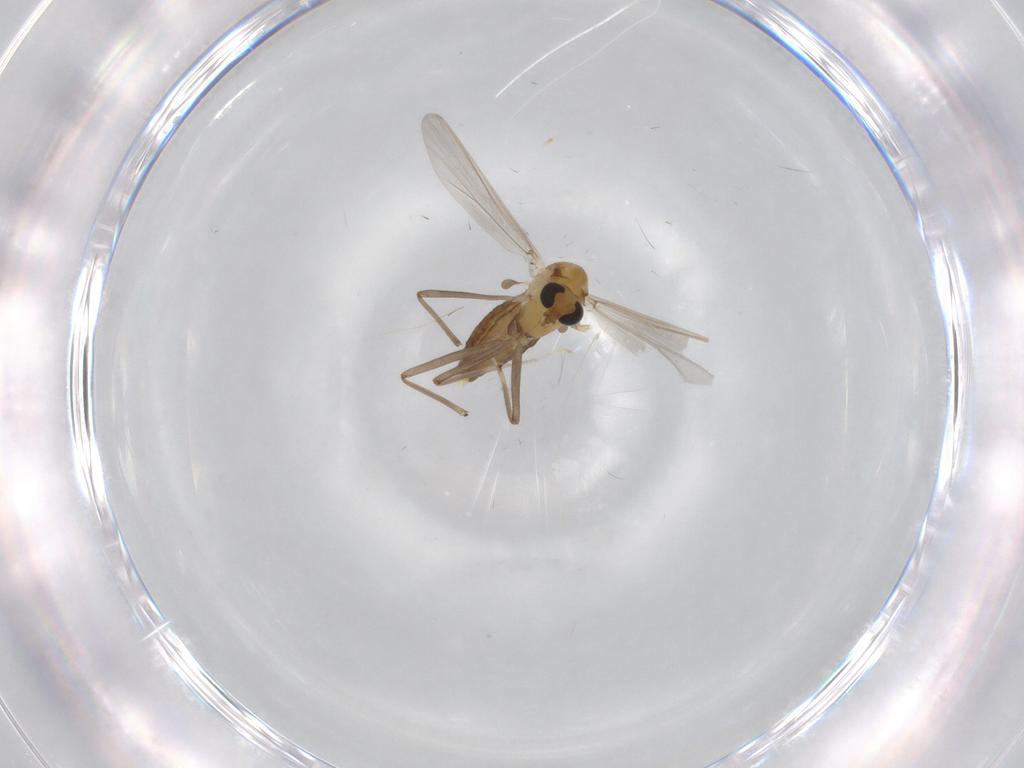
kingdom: Animalia
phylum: Arthropoda
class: Insecta
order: Diptera
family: Chironomidae
